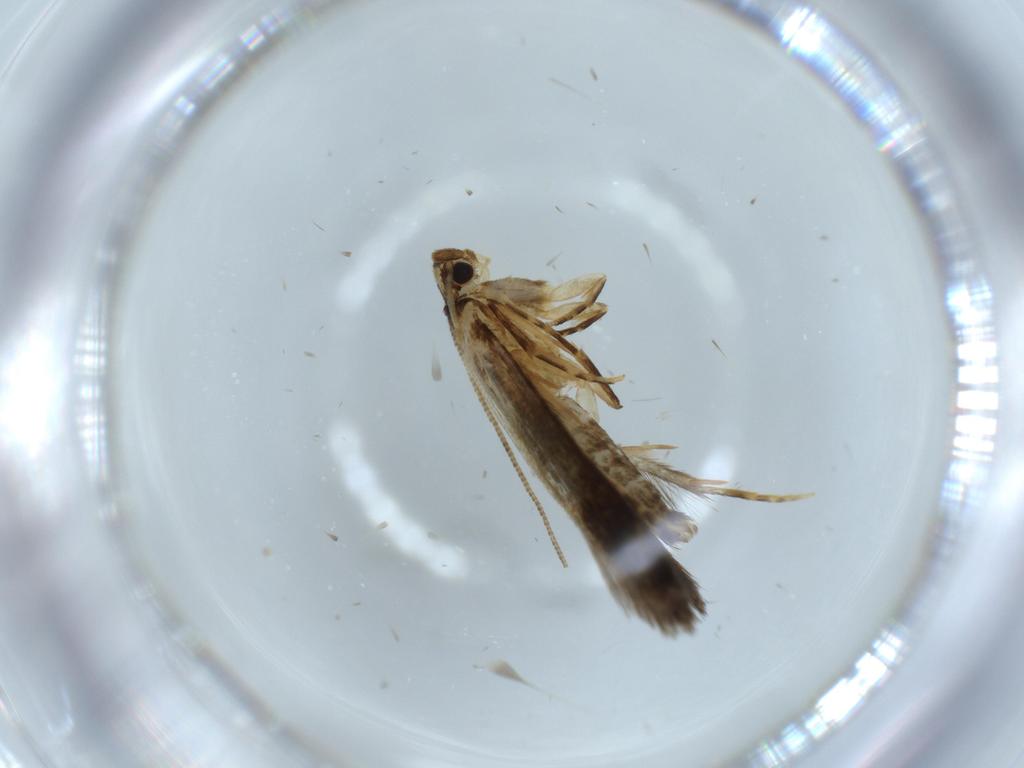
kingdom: Animalia
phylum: Arthropoda
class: Insecta
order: Lepidoptera
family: Tineidae
